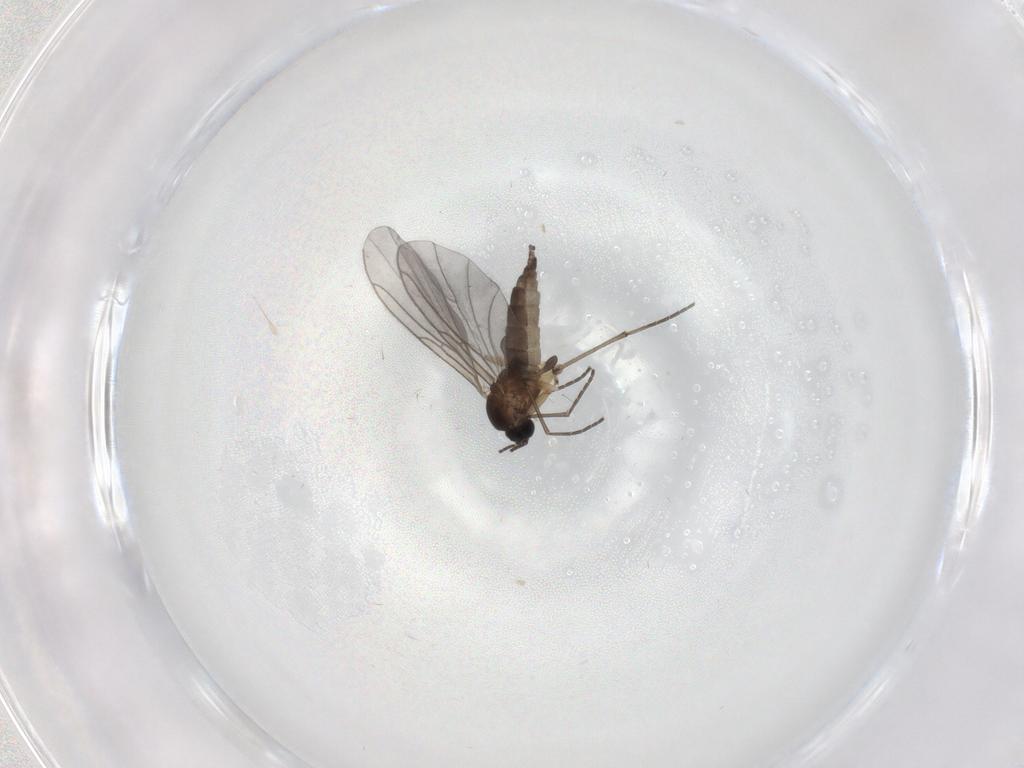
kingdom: Animalia
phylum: Arthropoda
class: Insecta
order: Diptera
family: Sciaridae
